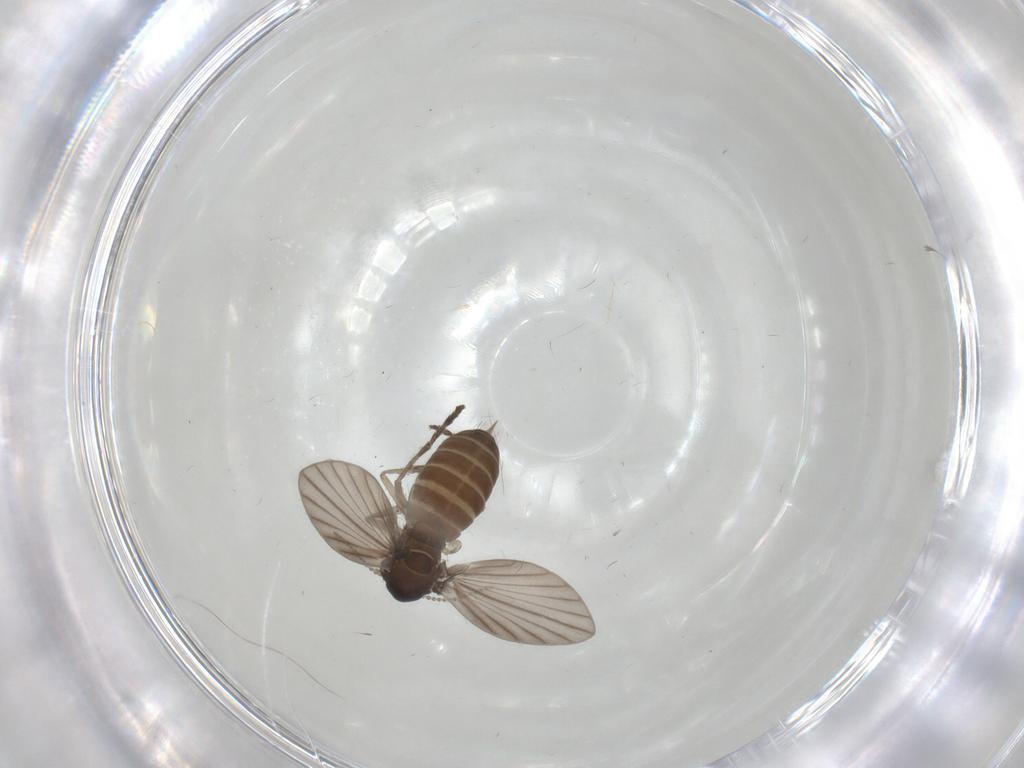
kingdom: Animalia
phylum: Arthropoda
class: Insecta
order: Diptera
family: Psychodidae
